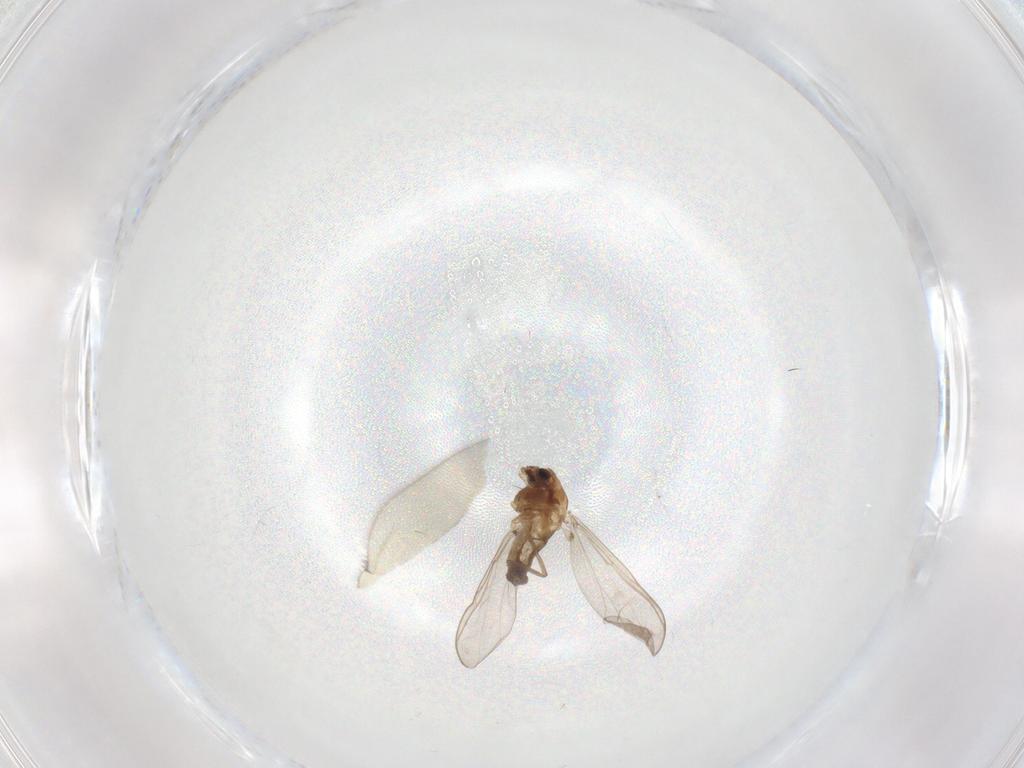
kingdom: Animalia
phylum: Arthropoda
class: Insecta
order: Diptera
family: Chironomidae
